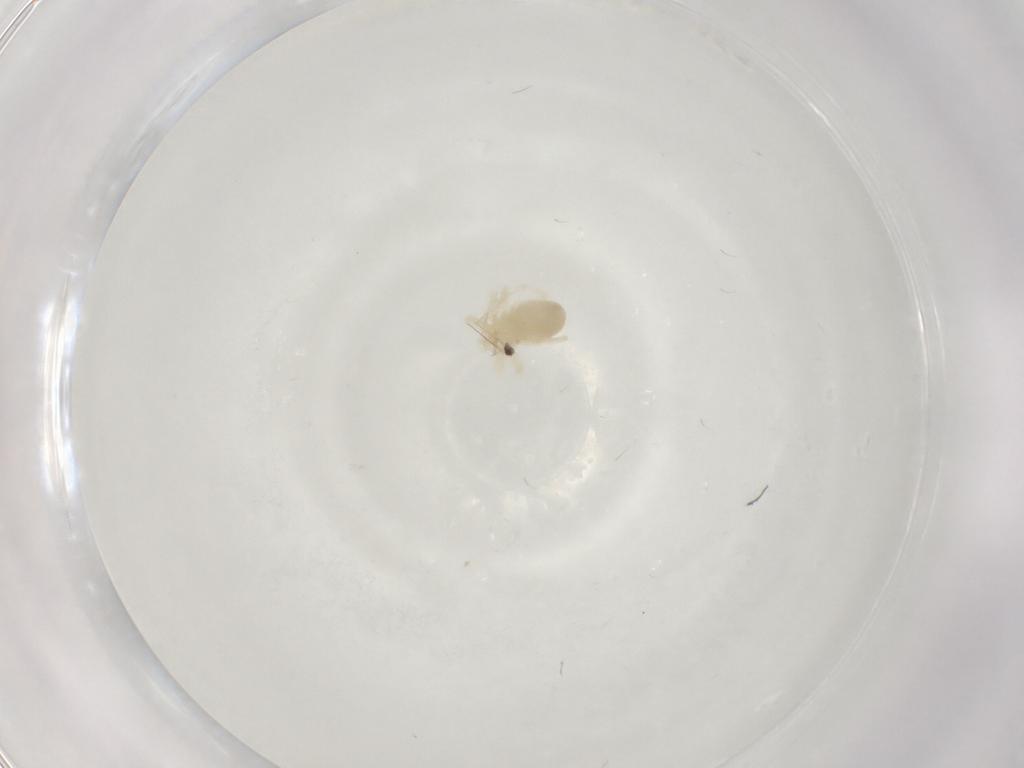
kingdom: Animalia
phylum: Arthropoda
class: Arachnida
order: Trombidiformes
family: Anystidae
